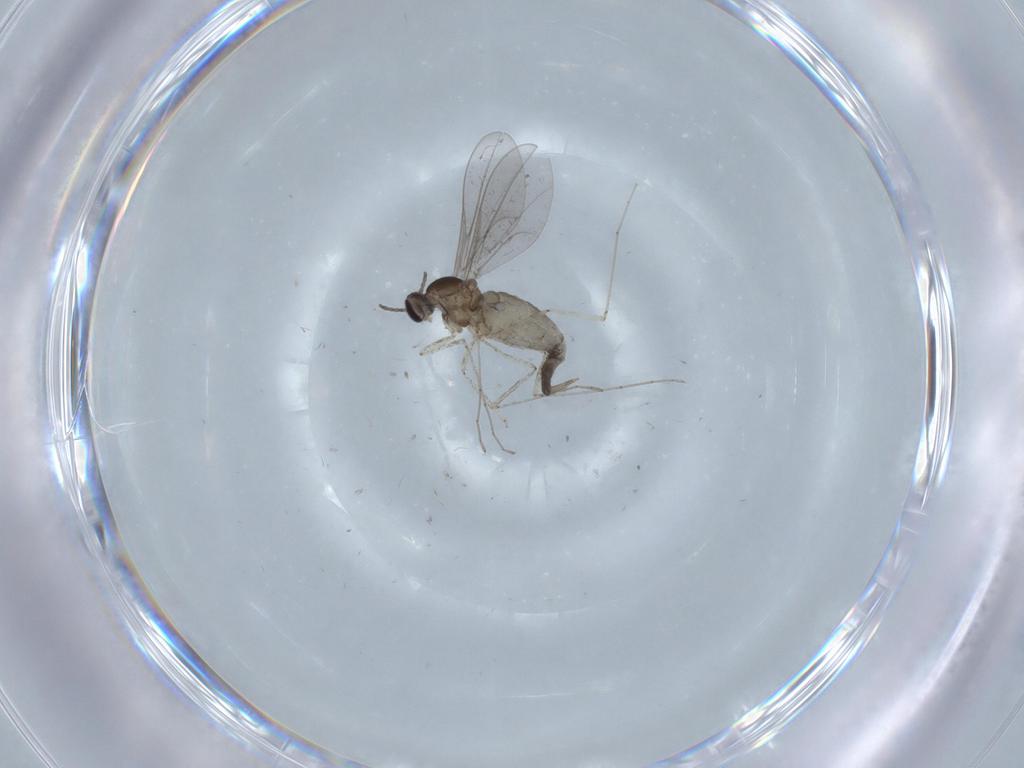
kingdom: Animalia
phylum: Arthropoda
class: Insecta
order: Diptera
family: Cecidomyiidae
